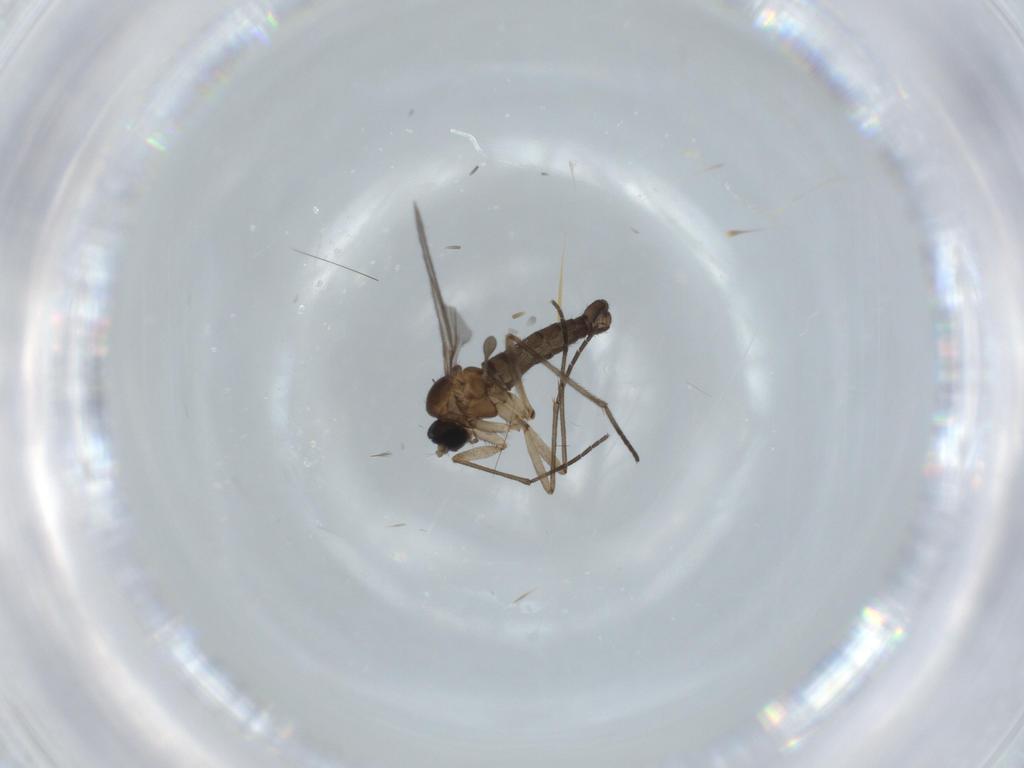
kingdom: Animalia
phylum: Arthropoda
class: Insecta
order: Diptera
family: Sciaridae
